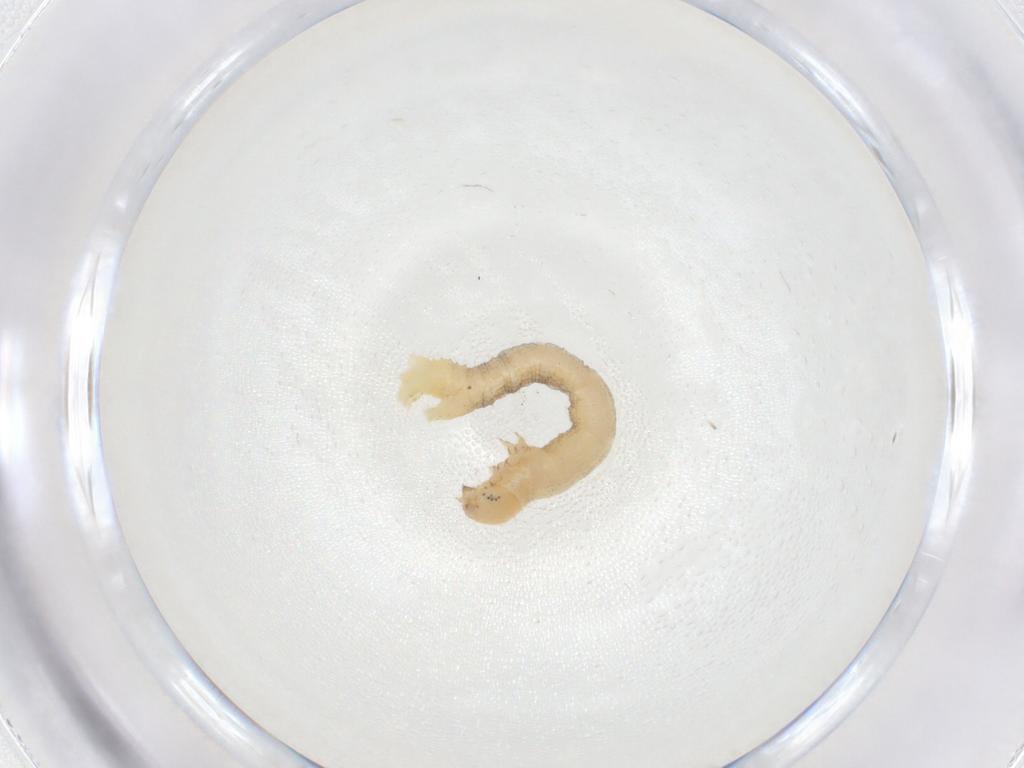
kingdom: Animalia
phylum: Arthropoda
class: Insecta
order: Lepidoptera
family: Geometridae
